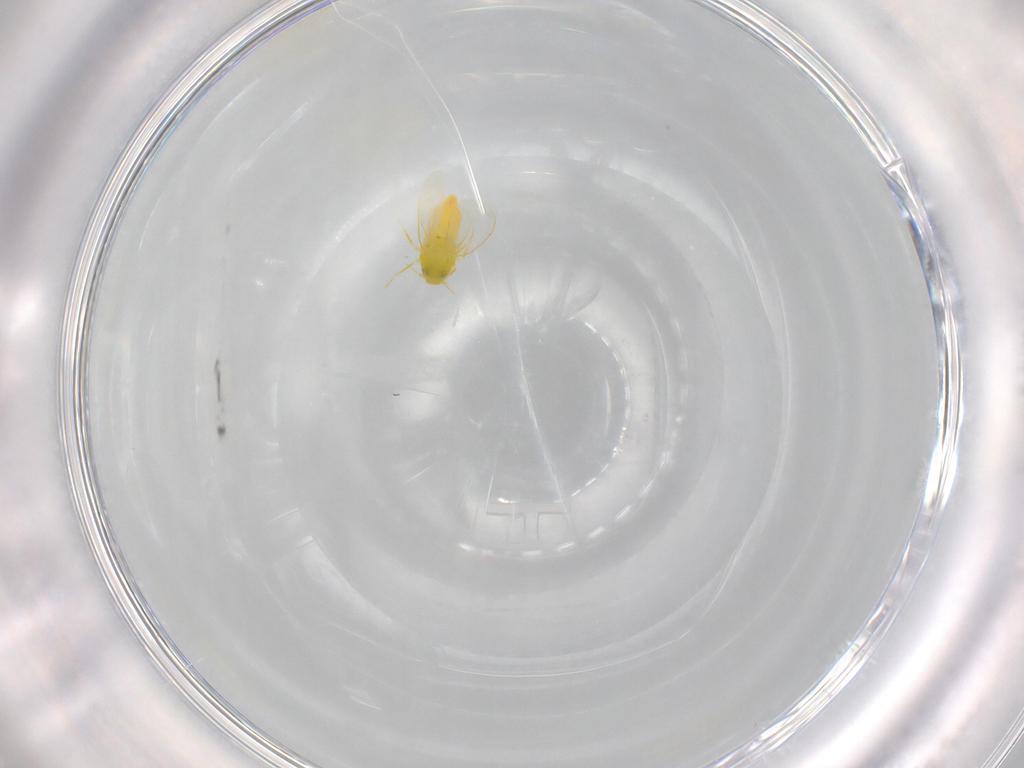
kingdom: Animalia
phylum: Arthropoda
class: Insecta
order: Hemiptera
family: Aleyrodidae
